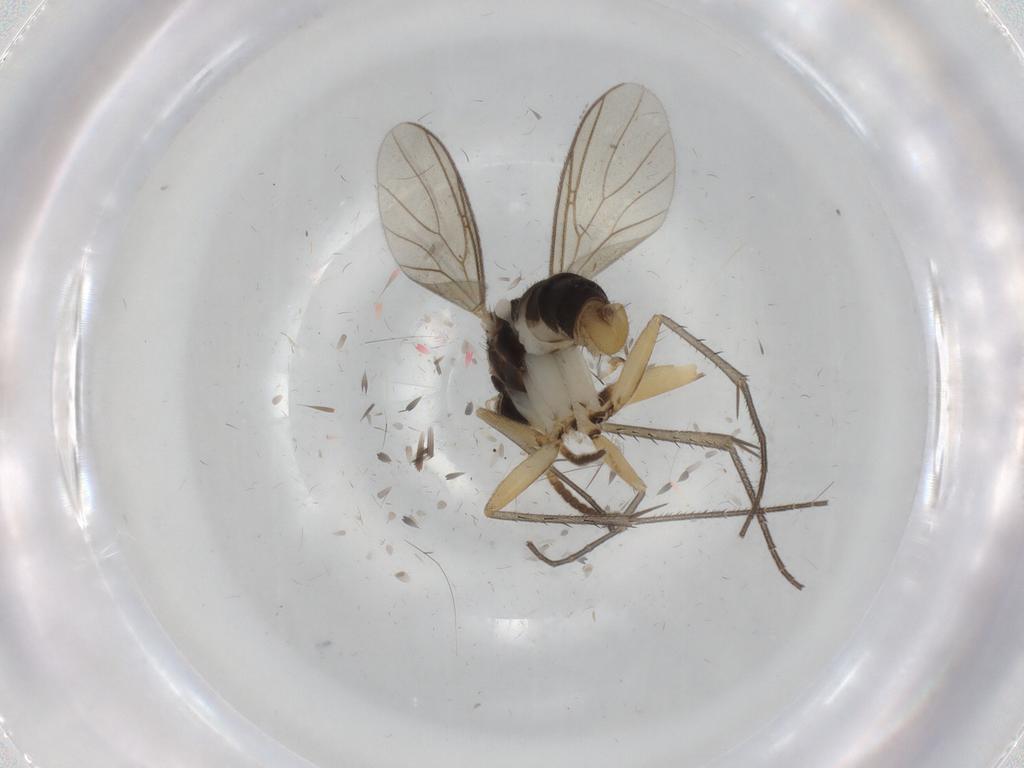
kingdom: Animalia
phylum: Arthropoda
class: Insecta
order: Diptera
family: Mycetophilidae
